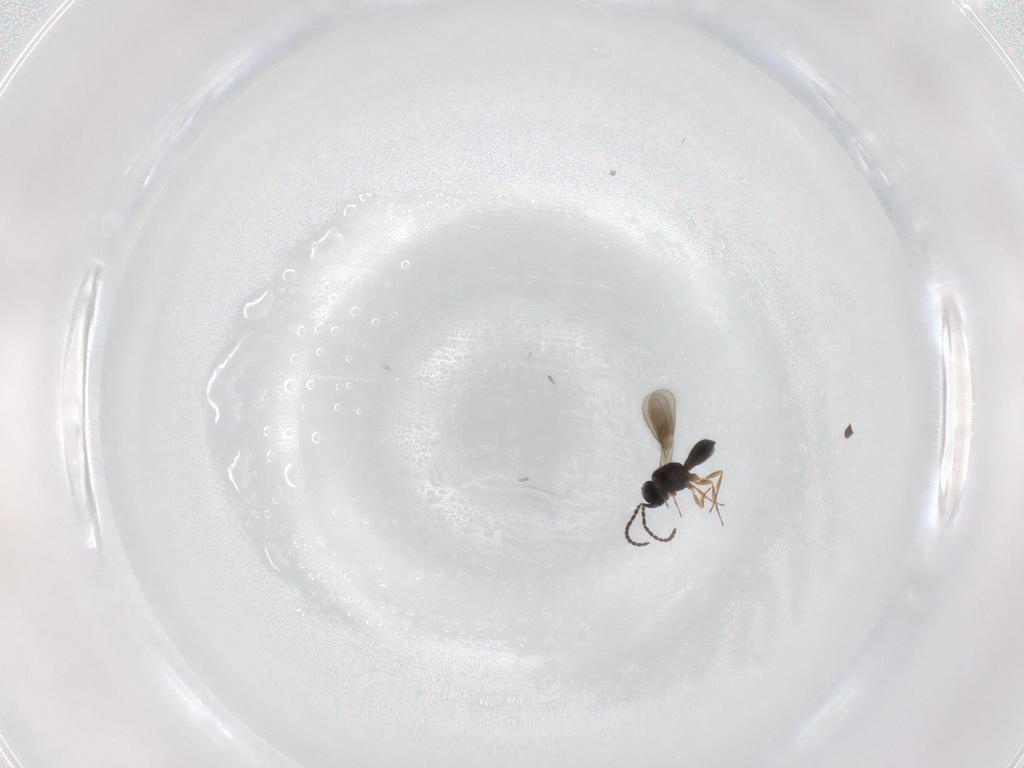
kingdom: Animalia
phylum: Arthropoda
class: Insecta
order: Hymenoptera
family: Scelionidae
